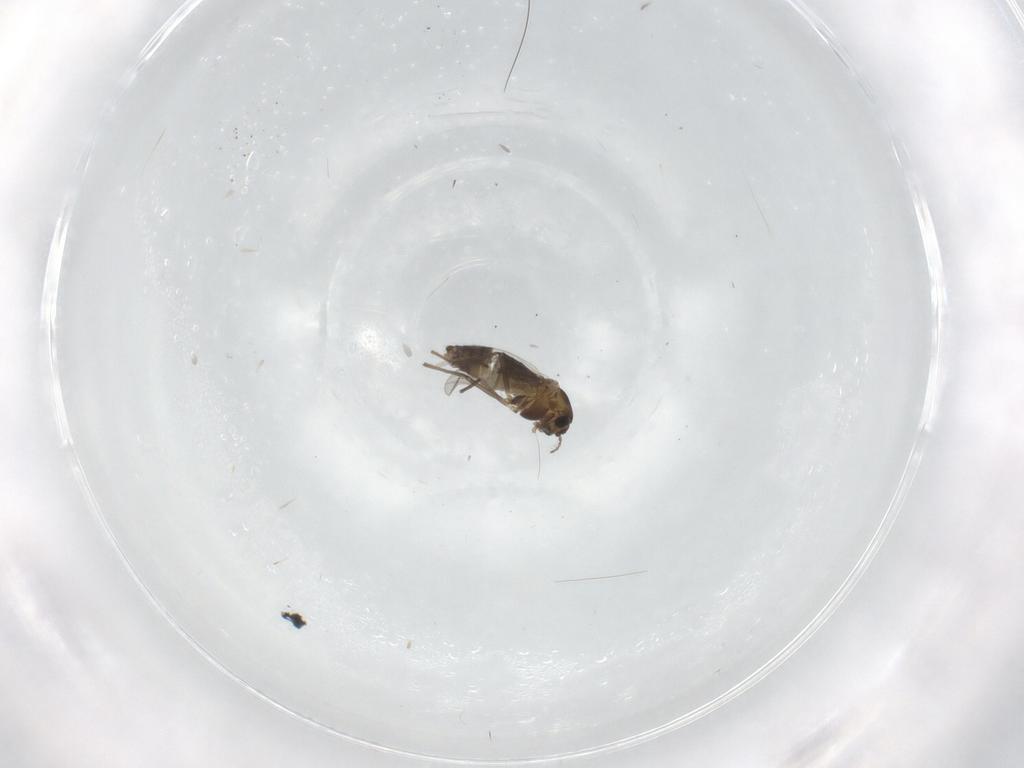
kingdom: Animalia
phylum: Arthropoda
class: Insecta
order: Diptera
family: Chironomidae
